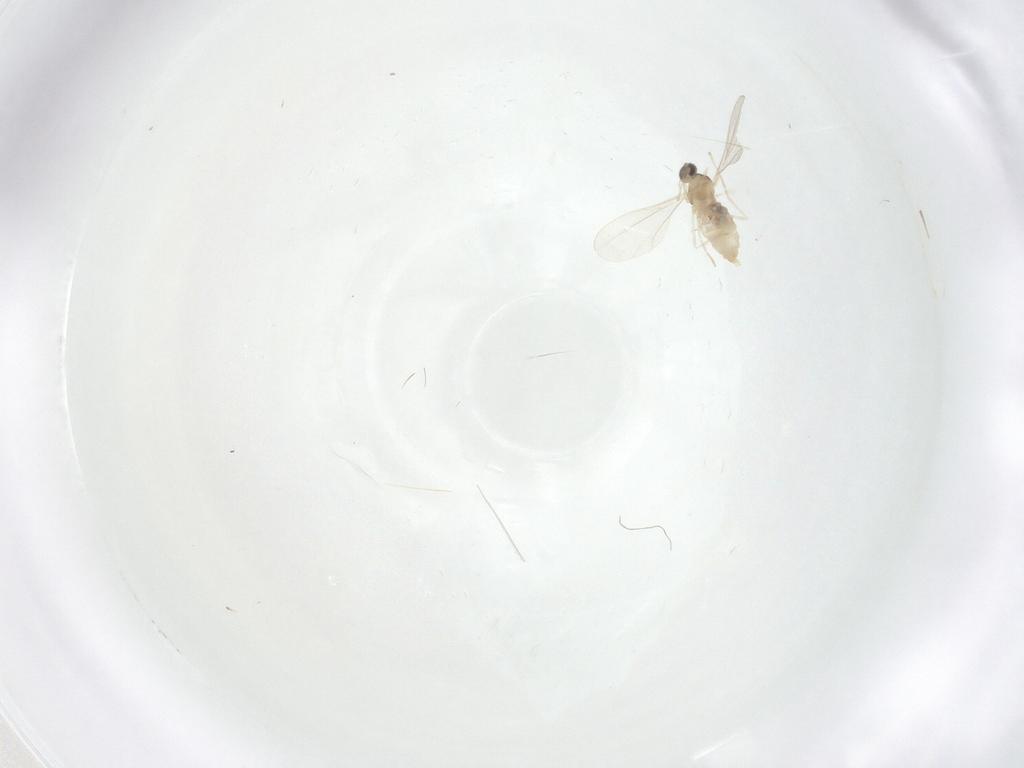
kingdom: Animalia
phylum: Arthropoda
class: Insecta
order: Diptera
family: Cecidomyiidae
